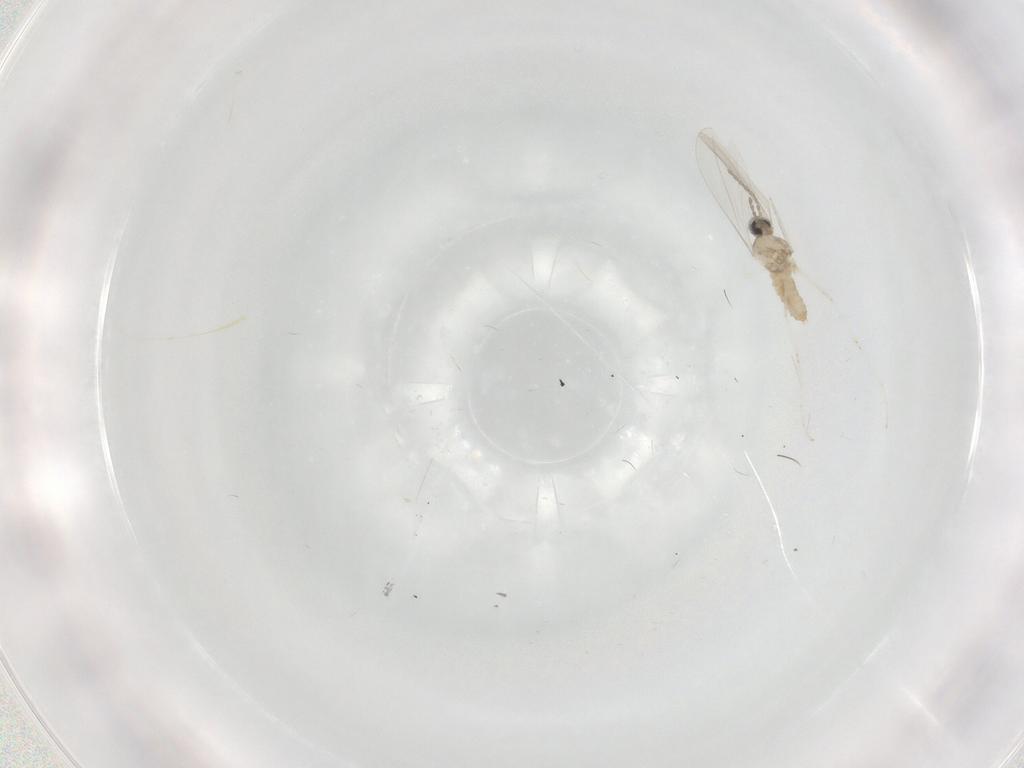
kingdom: Animalia
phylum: Arthropoda
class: Insecta
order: Diptera
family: Cecidomyiidae
